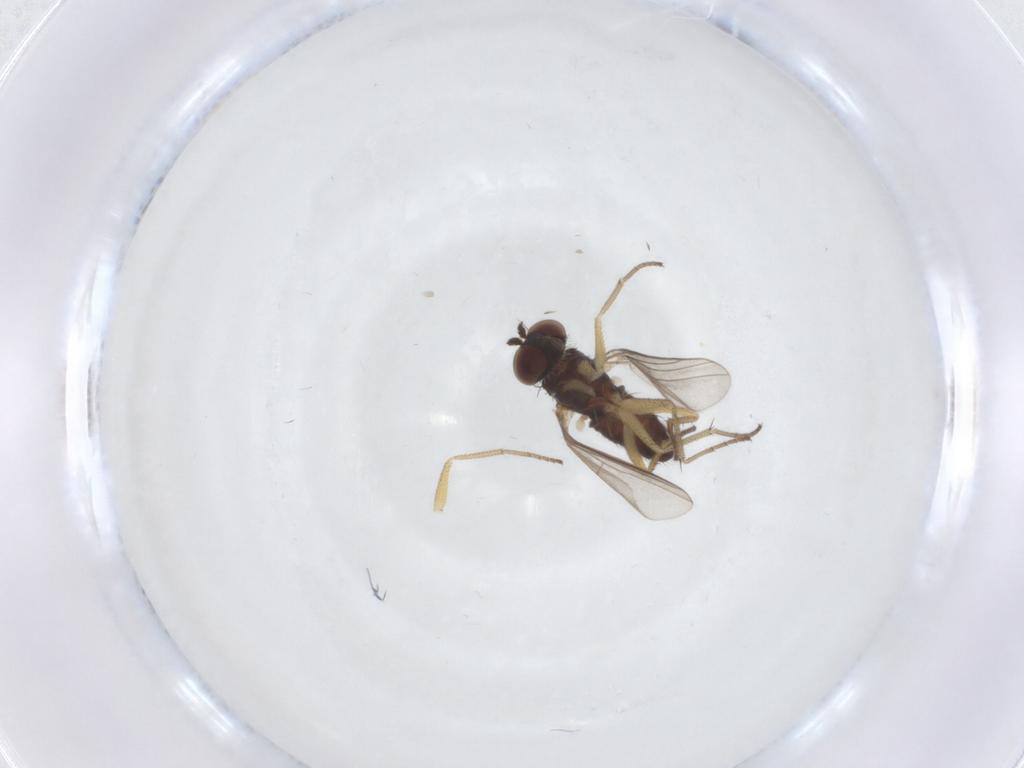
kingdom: Animalia
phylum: Arthropoda
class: Insecta
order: Diptera
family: Dolichopodidae
